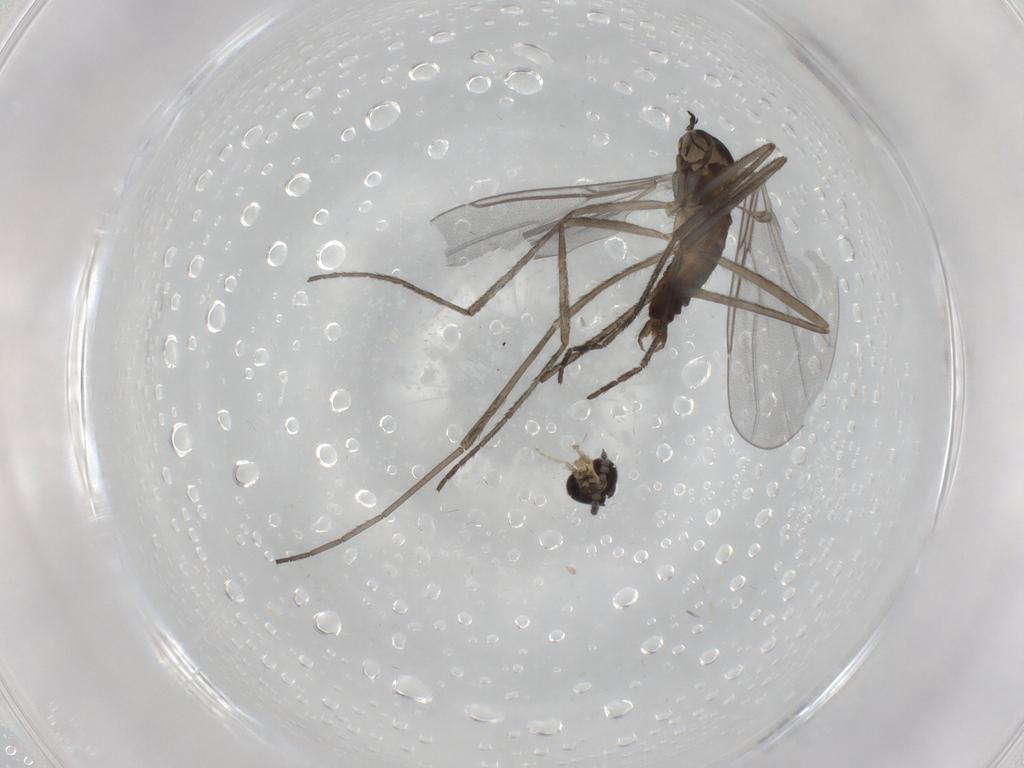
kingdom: Animalia
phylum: Arthropoda
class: Insecta
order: Diptera
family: Cecidomyiidae
